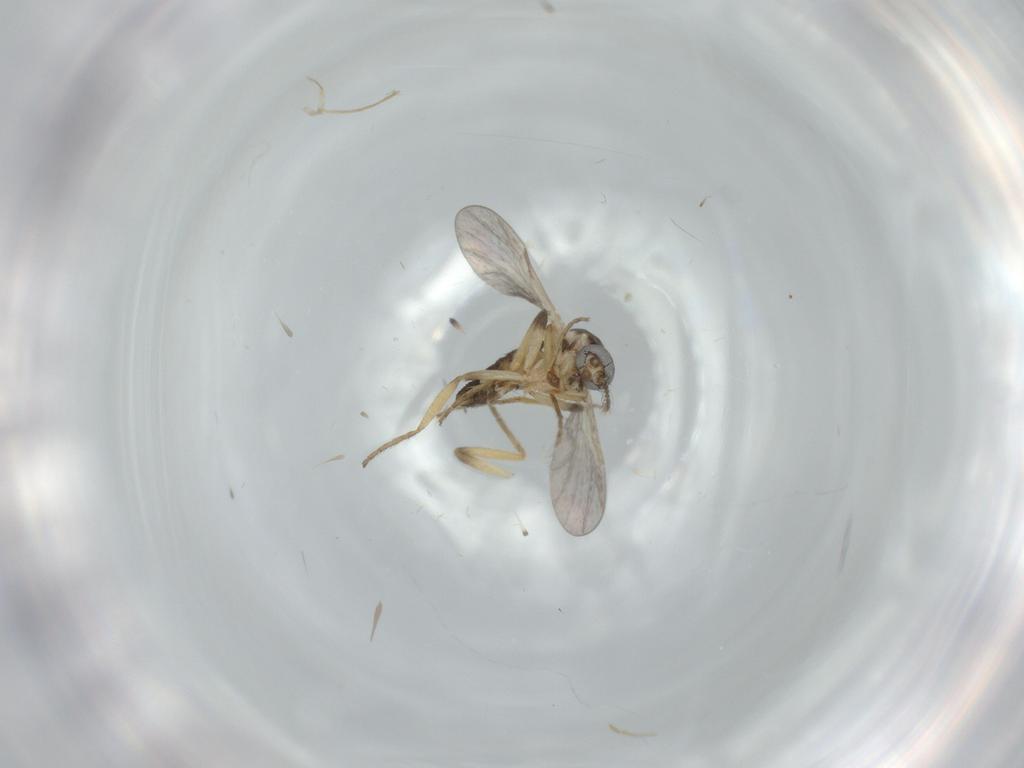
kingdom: Animalia
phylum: Arthropoda
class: Insecta
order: Diptera
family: Ceratopogonidae
